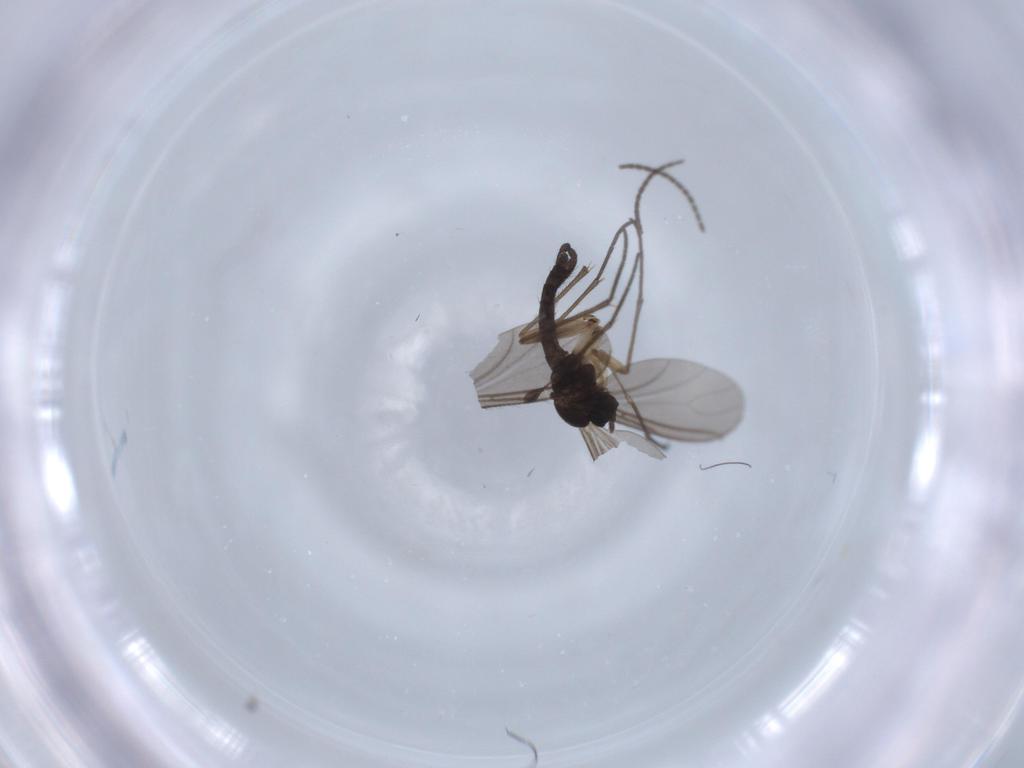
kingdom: Animalia
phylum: Arthropoda
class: Insecta
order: Diptera
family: Sciaridae
